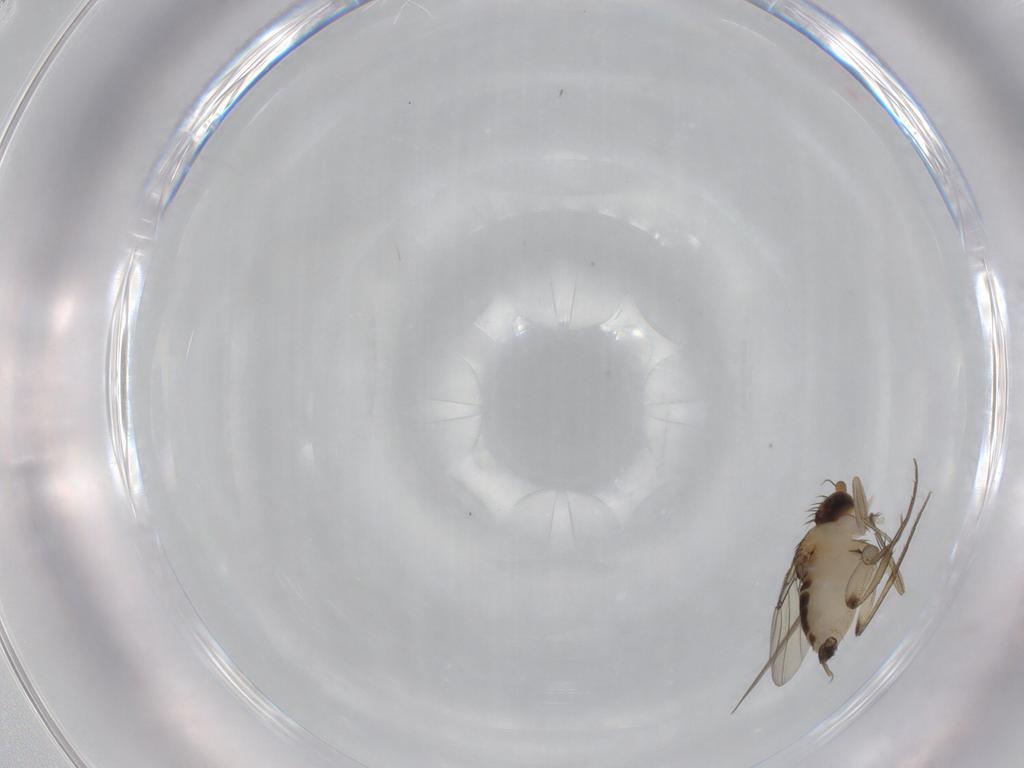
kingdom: Animalia
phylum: Arthropoda
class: Insecta
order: Diptera
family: Phoridae
